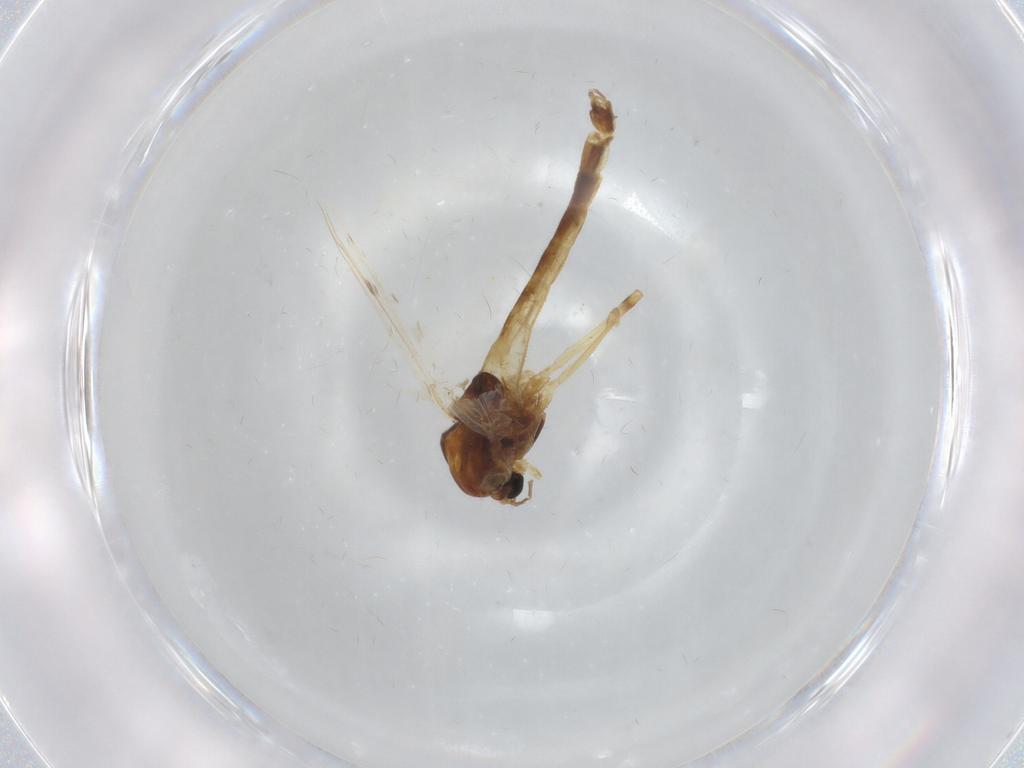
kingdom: Animalia
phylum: Arthropoda
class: Insecta
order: Diptera
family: Chironomidae
